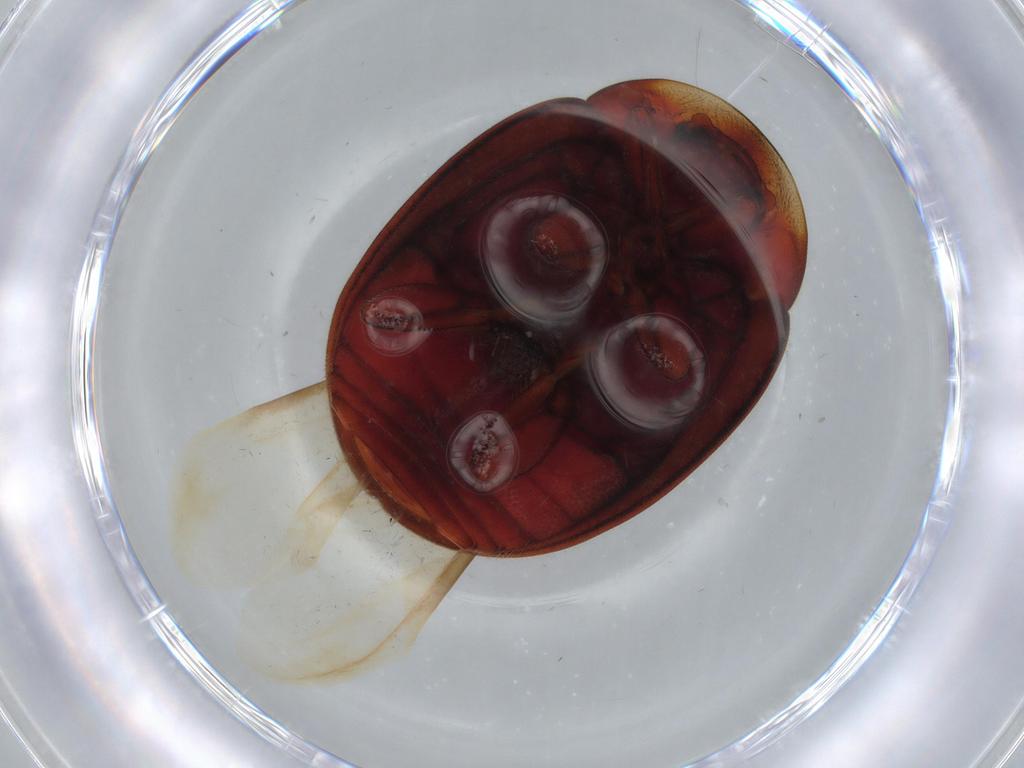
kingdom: Animalia
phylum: Arthropoda
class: Insecta
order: Coleoptera
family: Coccinellidae
